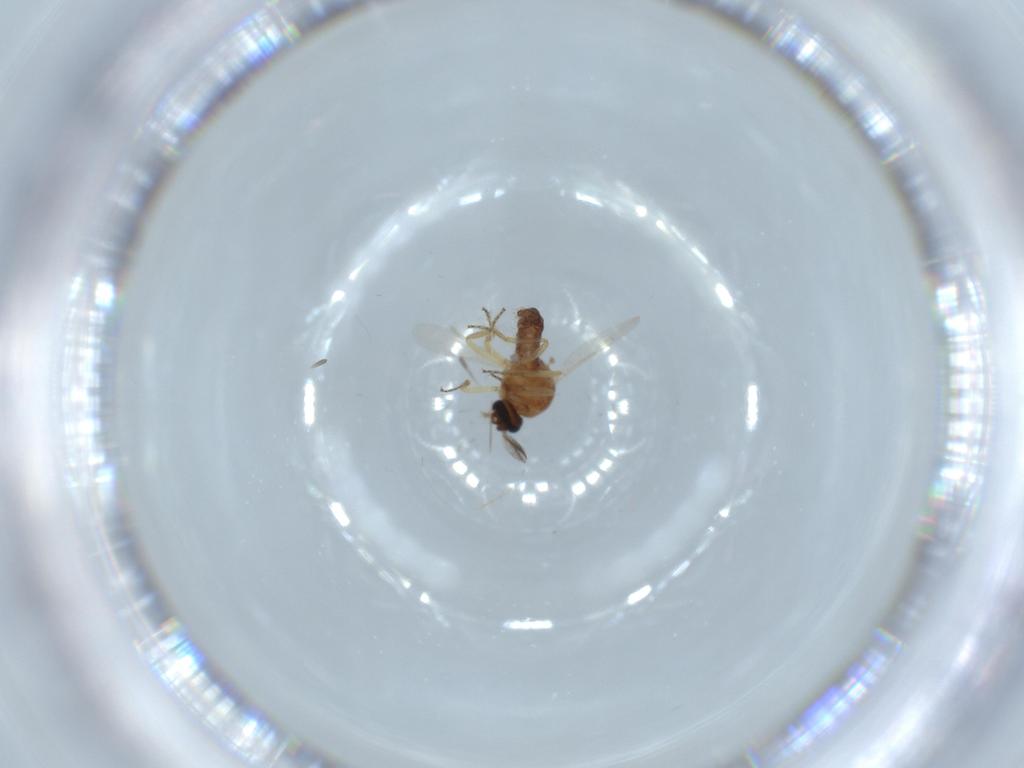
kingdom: Animalia
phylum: Arthropoda
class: Insecta
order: Diptera
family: Ceratopogonidae
